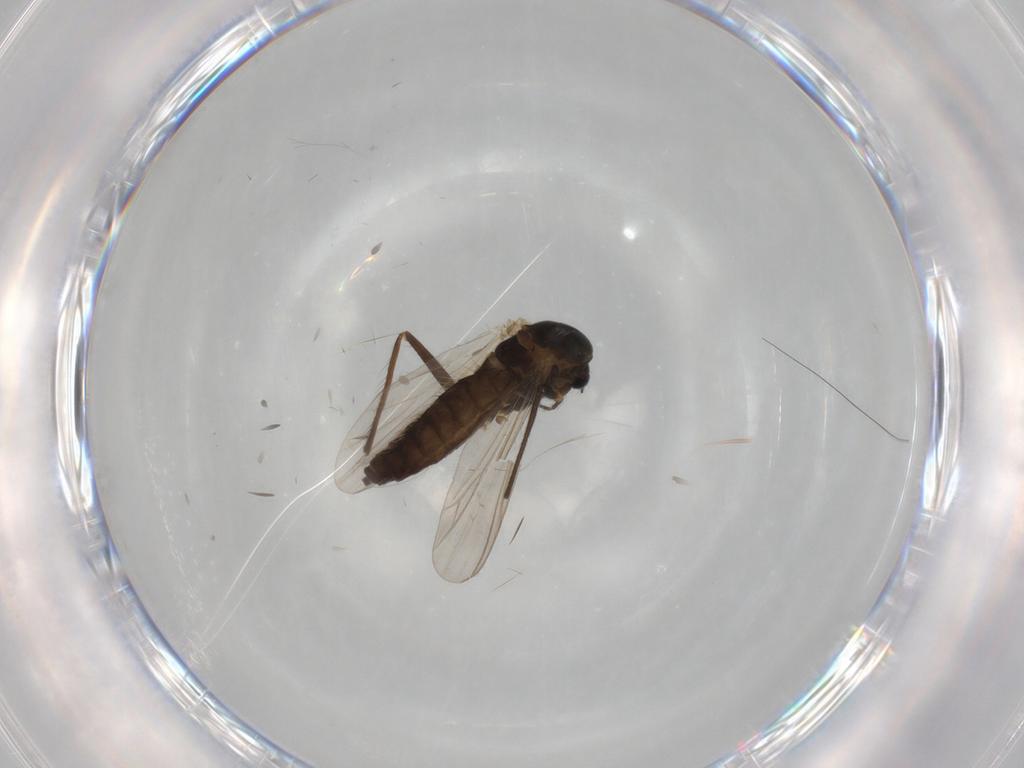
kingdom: Animalia
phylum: Arthropoda
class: Insecta
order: Diptera
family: Chironomidae
